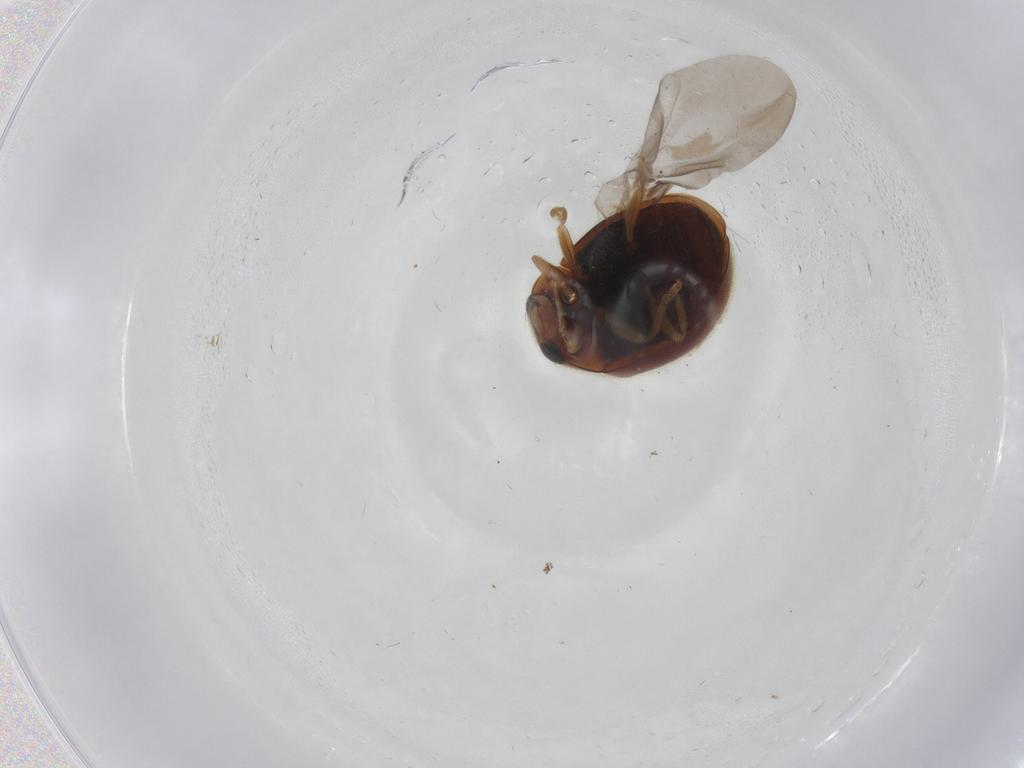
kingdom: Animalia
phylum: Arthropoda
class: Insecta
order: Coleoptera
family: Coccinellidae
